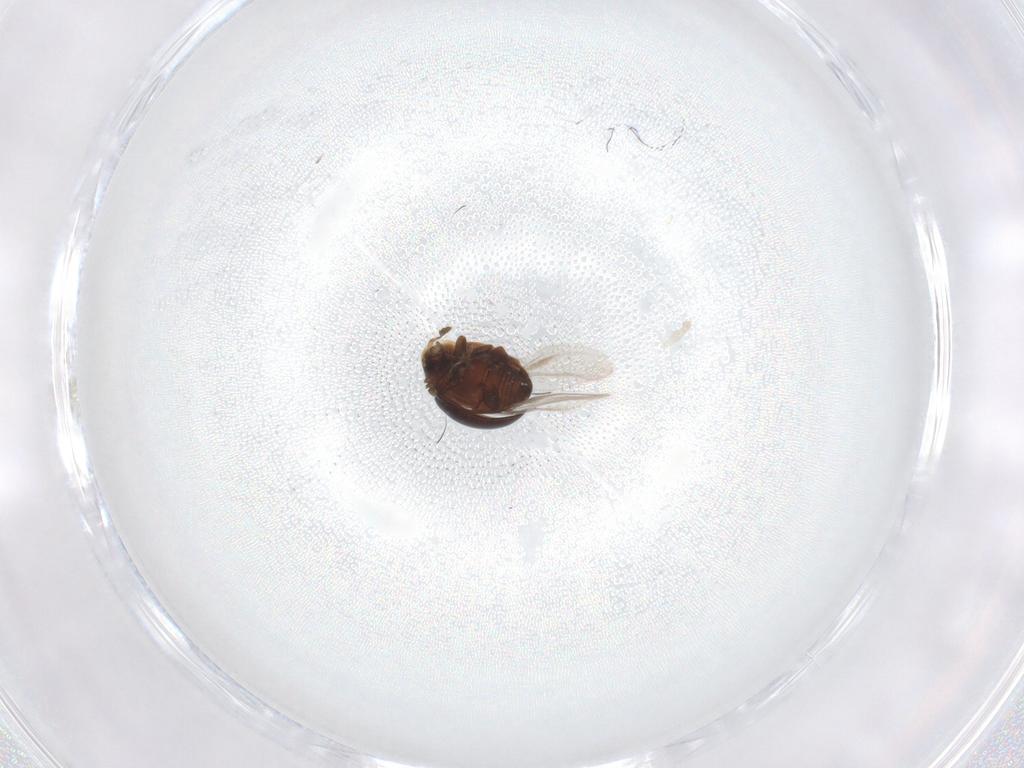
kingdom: Animalia
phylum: Arthropoda
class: Insecta
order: Coleoptera
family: Corylophidae
